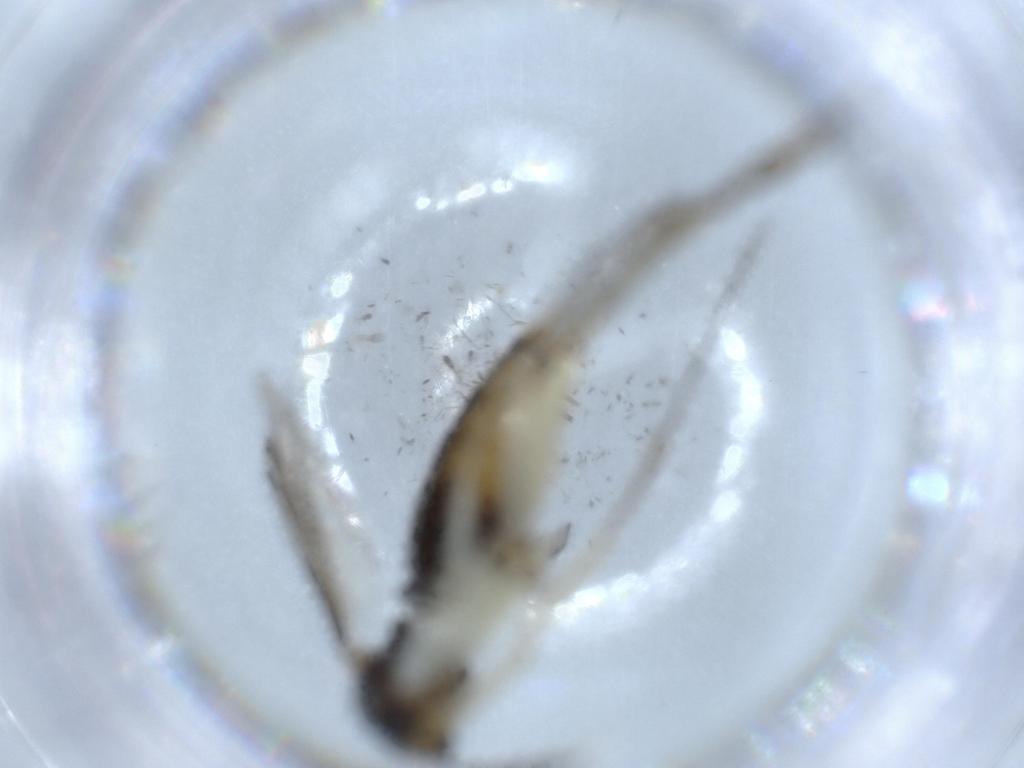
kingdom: Animalia
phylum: Arthropoda
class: Insecta
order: Diptera
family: Mycetophilidae
